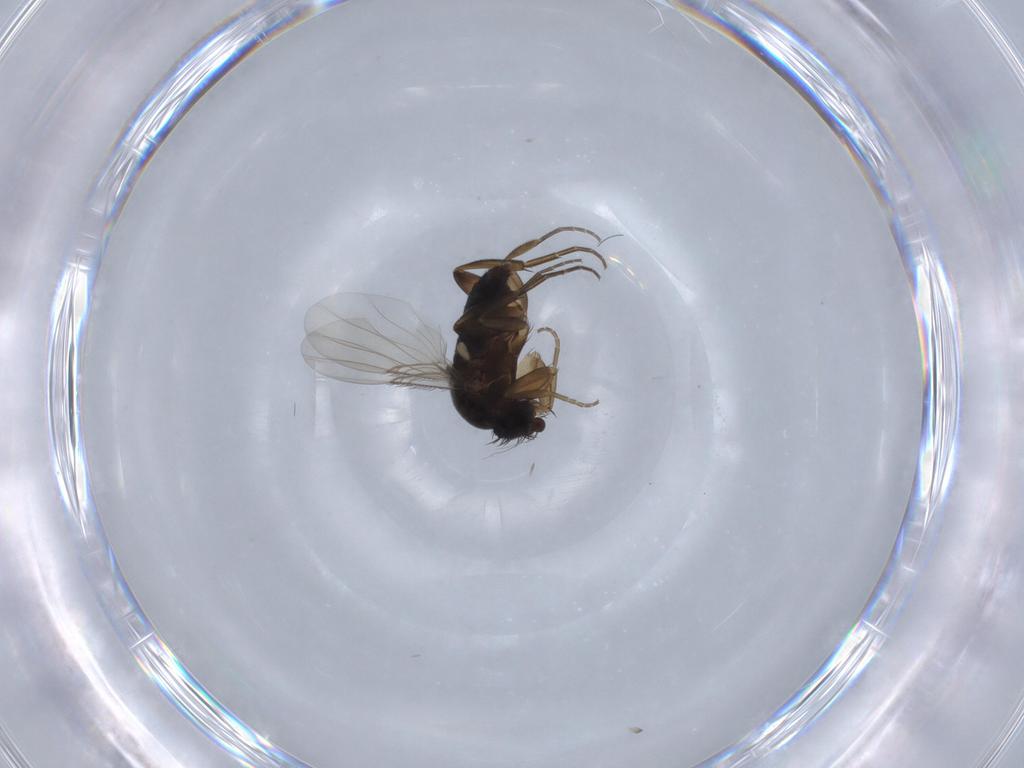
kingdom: Animalia
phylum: Arthropoda
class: Insecta
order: Diptera
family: Phoridae
